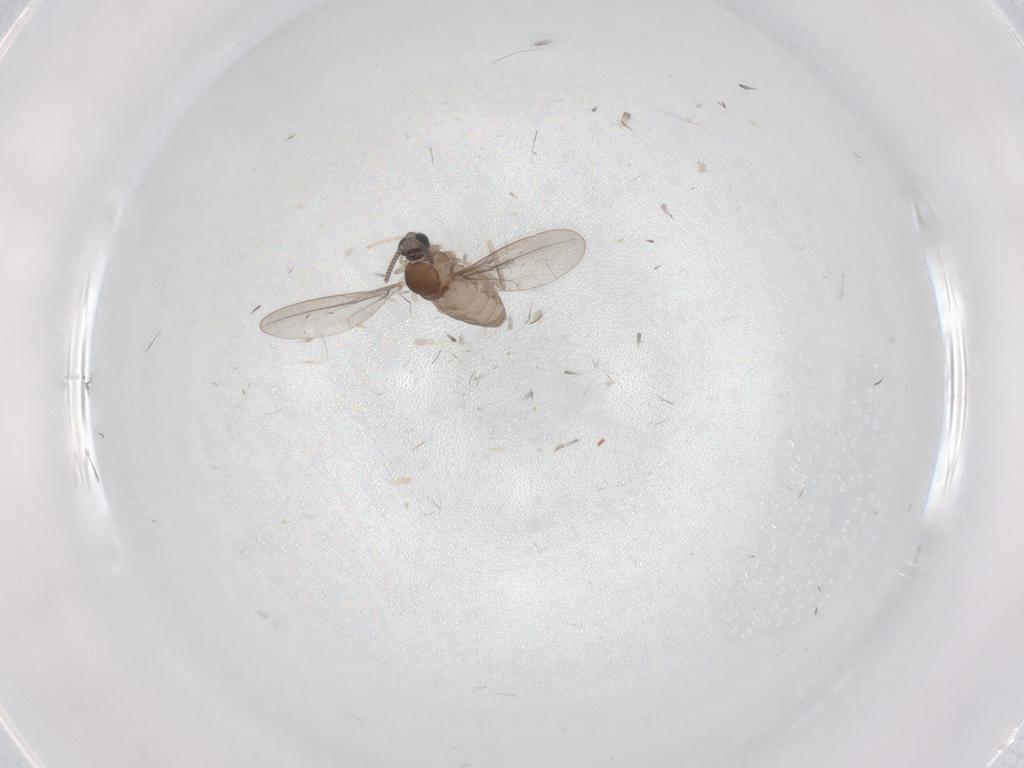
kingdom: Animalia
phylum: Arthropoda
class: Insecta
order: Diptera
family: Cecidomyiidae
